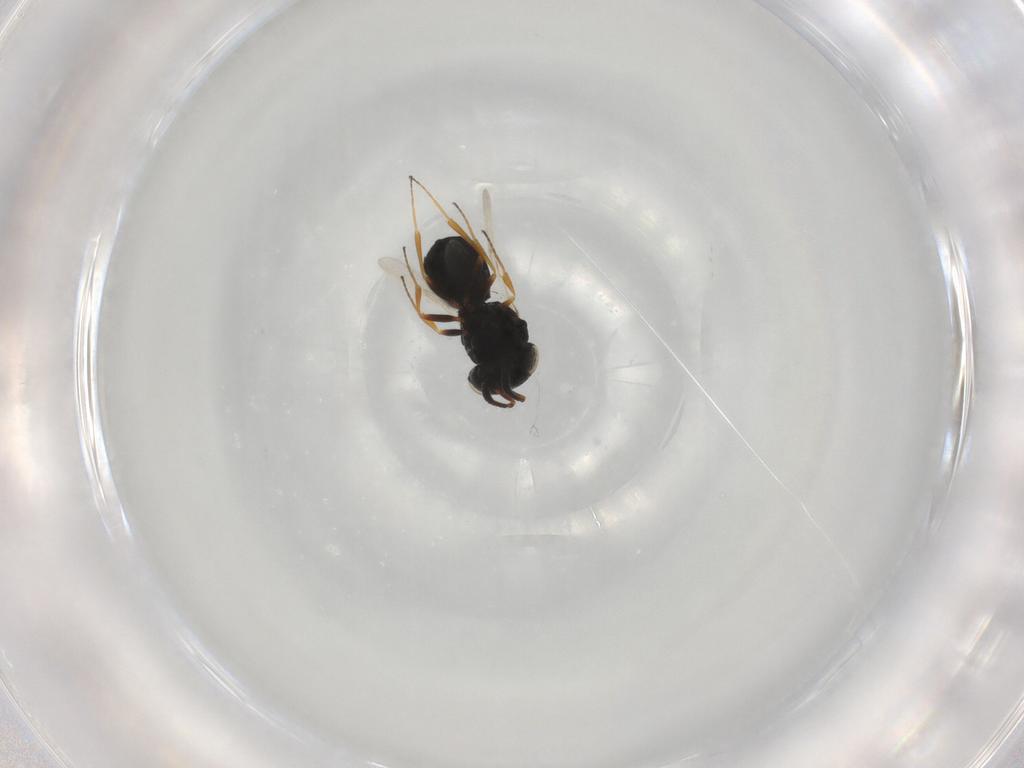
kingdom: Animalia
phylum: Arthropoda
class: Insecta
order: Hymenoptera
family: Scelionidae
